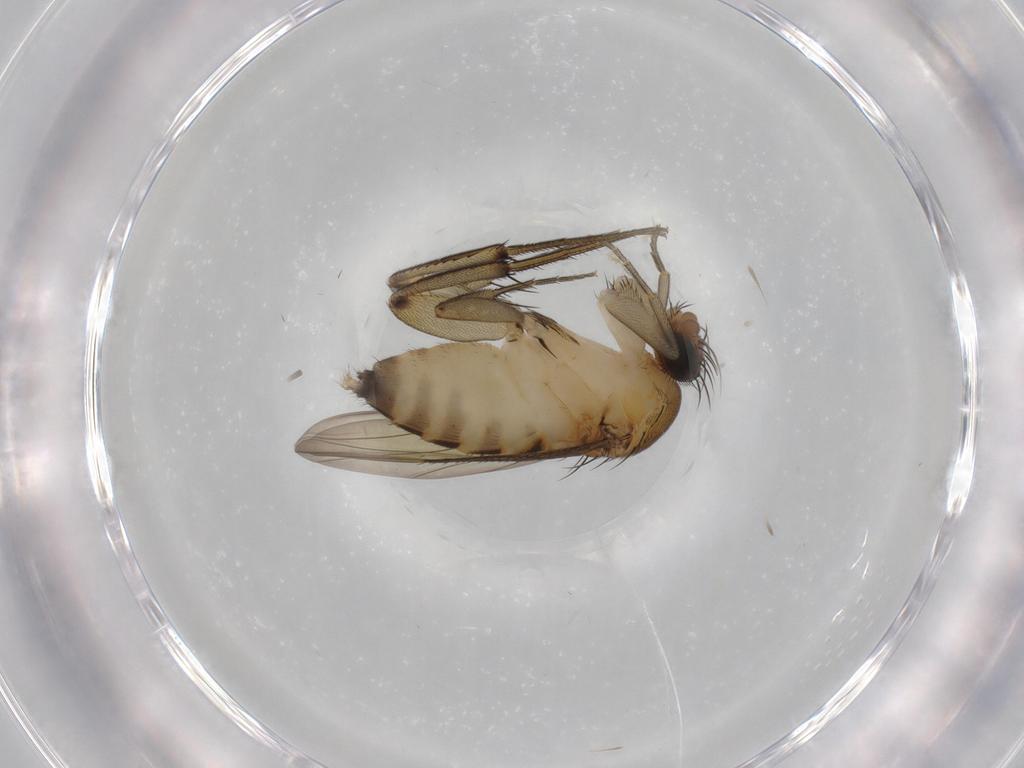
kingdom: Animalia
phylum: Arthropoda
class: Insecta
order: Diptera
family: Phoridae
